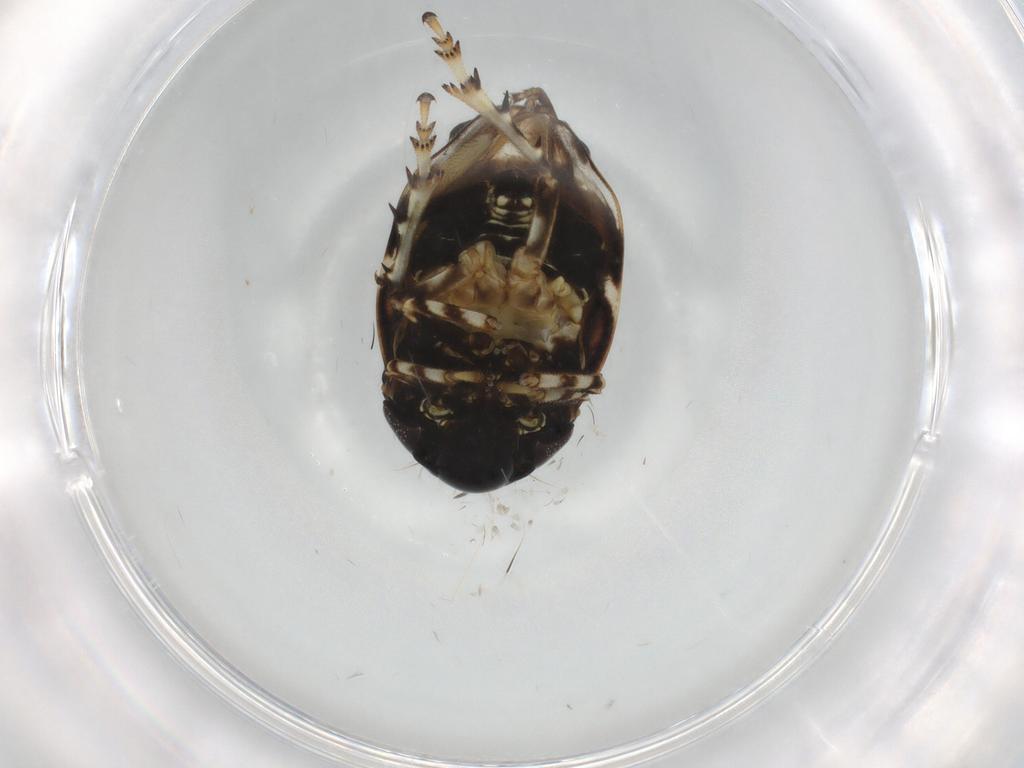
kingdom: Animalia
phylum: Arthropoda
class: Insecta
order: Hemiptera
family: Clastopteridae
